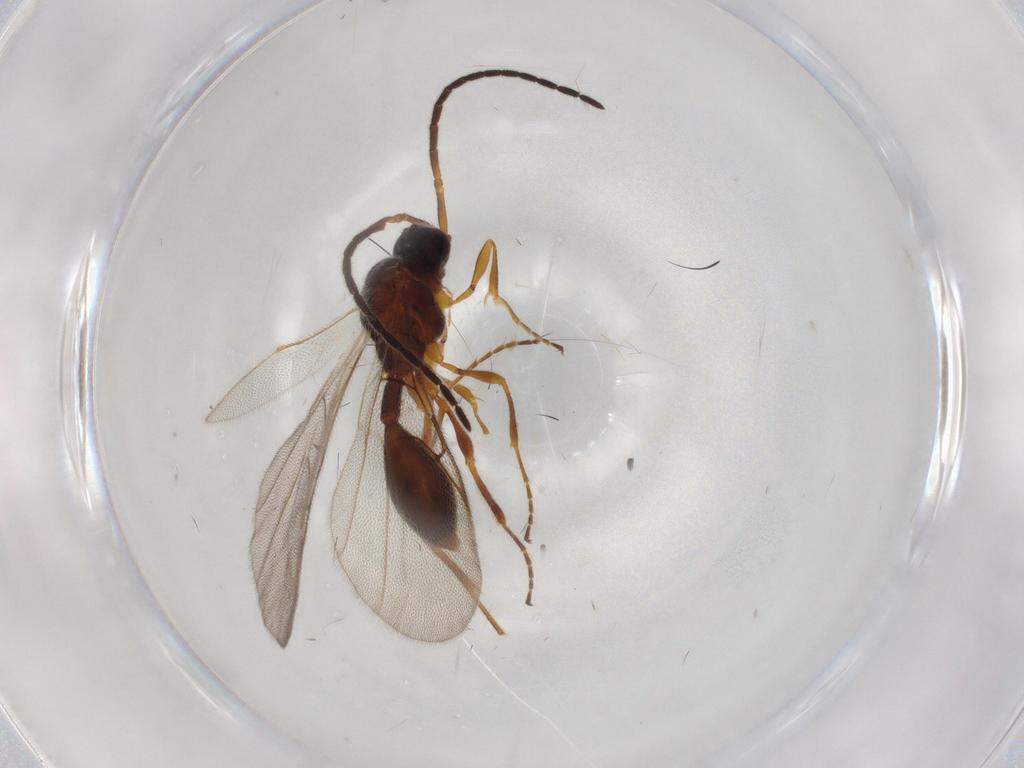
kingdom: Animalia
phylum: Arthropoda
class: Insecta
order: Hymenoptera
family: Diapriidae
